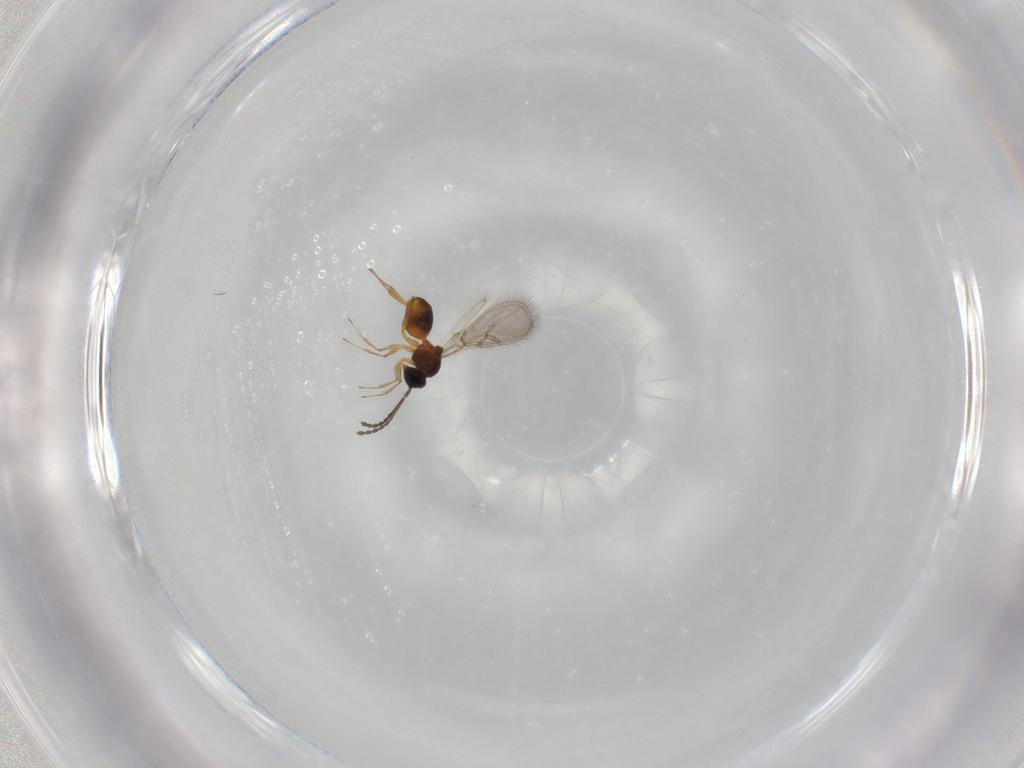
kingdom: Animalia
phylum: Arthropoda
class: Insecta
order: Hymenoptera
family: Figitidae
